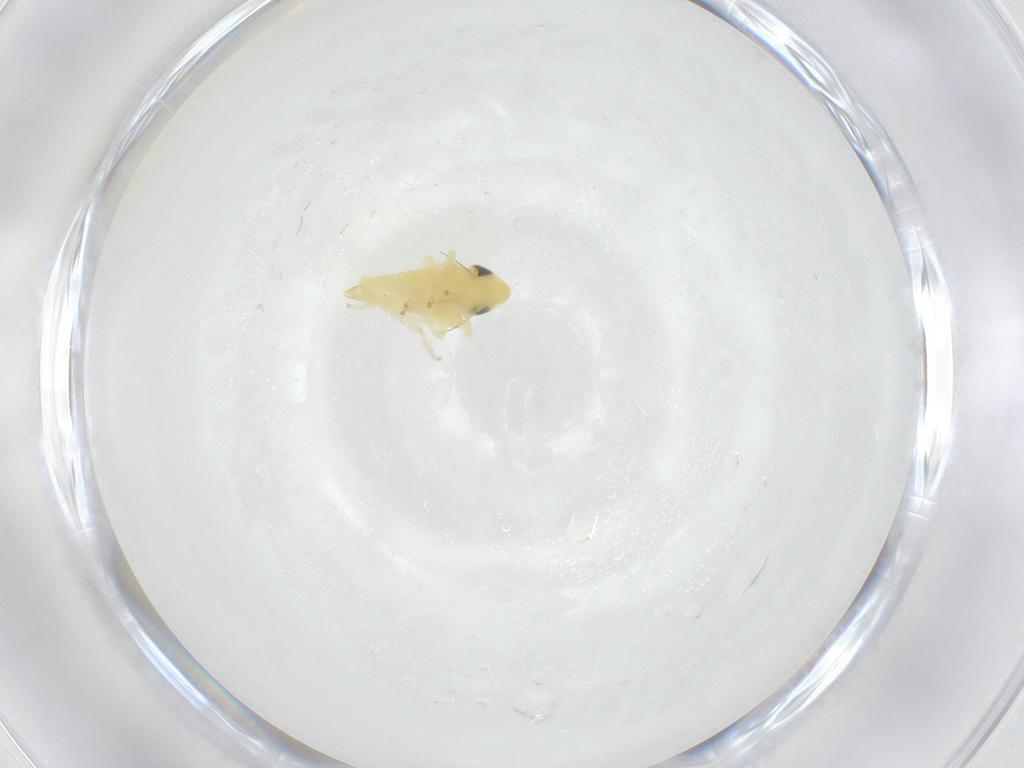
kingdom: Animalia
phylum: Arthropoda
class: Insecta
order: Hemiptera
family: Cicadellidae
